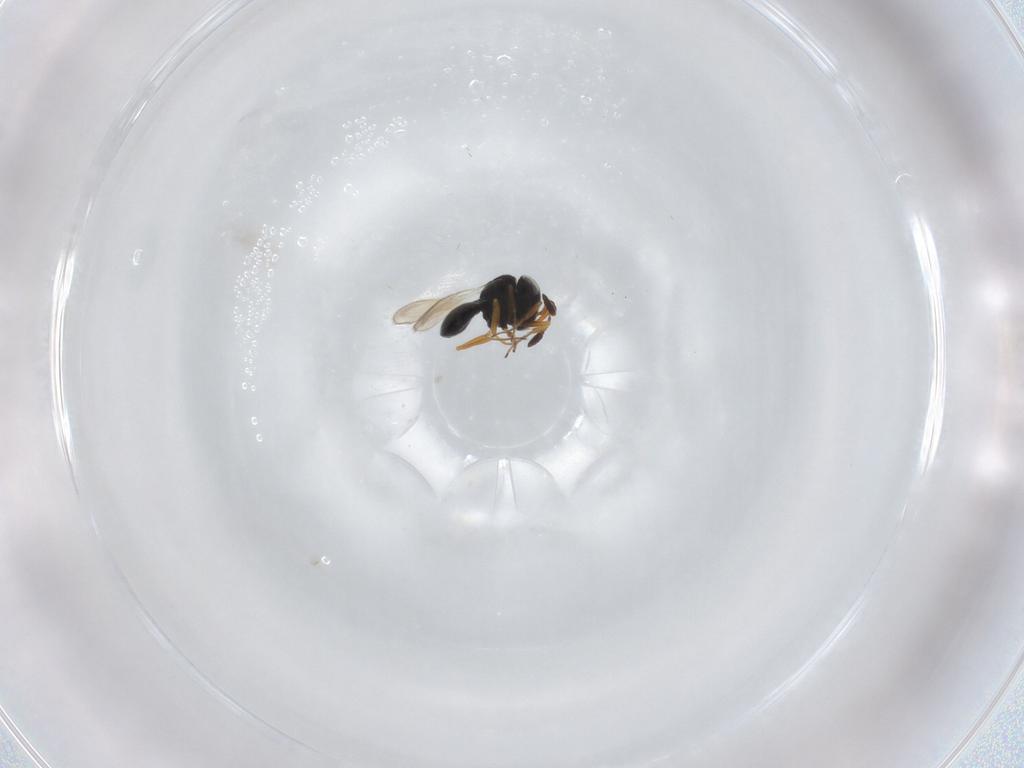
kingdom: Animalia
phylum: Arthropoda
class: Insecta
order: Hymenoptera
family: Scelionidae
